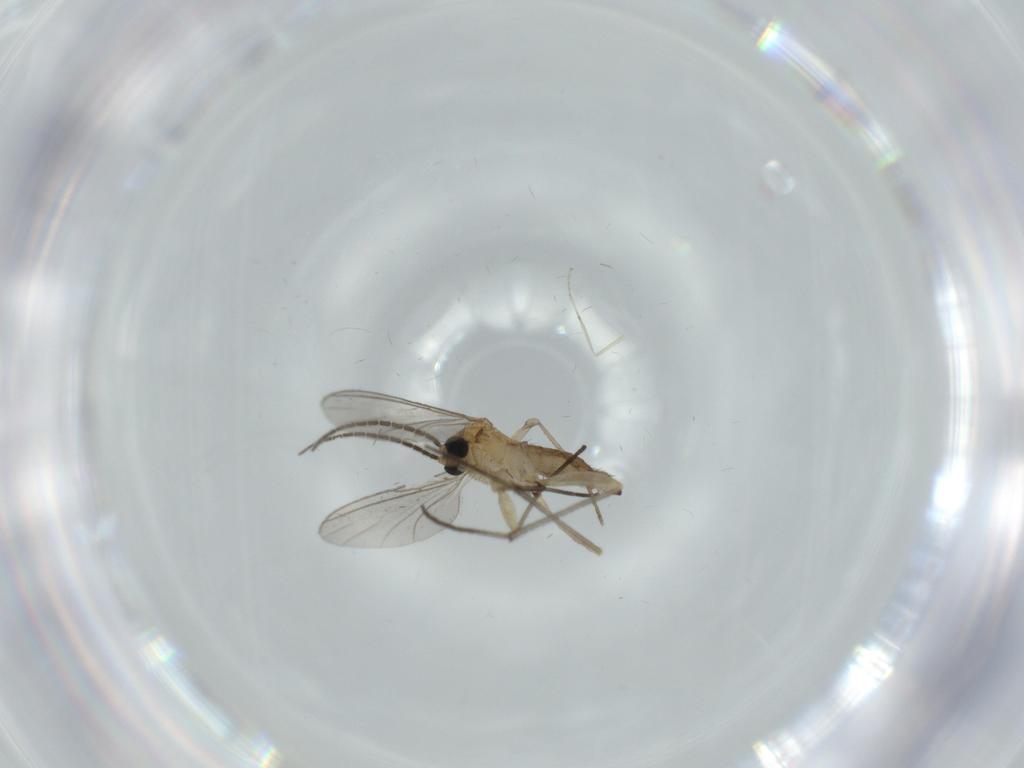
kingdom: Animalia
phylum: Arthropoda
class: Insecta
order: Diptera
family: Sciaridae
